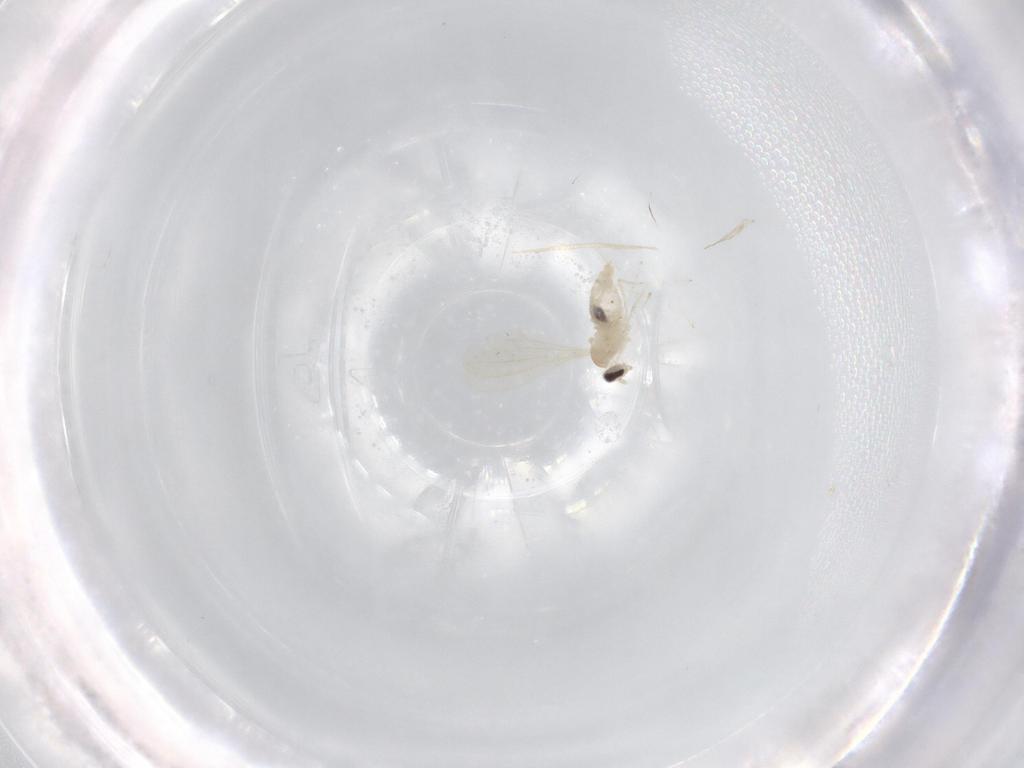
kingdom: Animalia
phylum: Arthropoda
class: Insecta
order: Diptera
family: Cecidomyiidae
